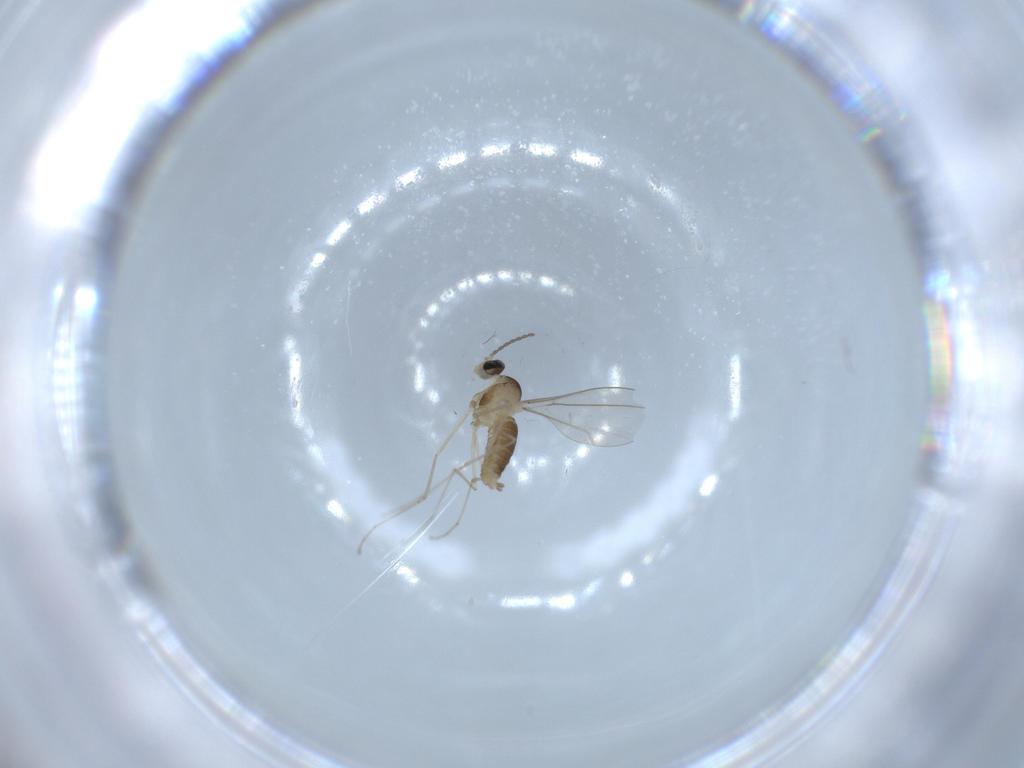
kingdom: Animalia
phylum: Arthropoda
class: Insecta
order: Diptera
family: Cecidomyiidae
